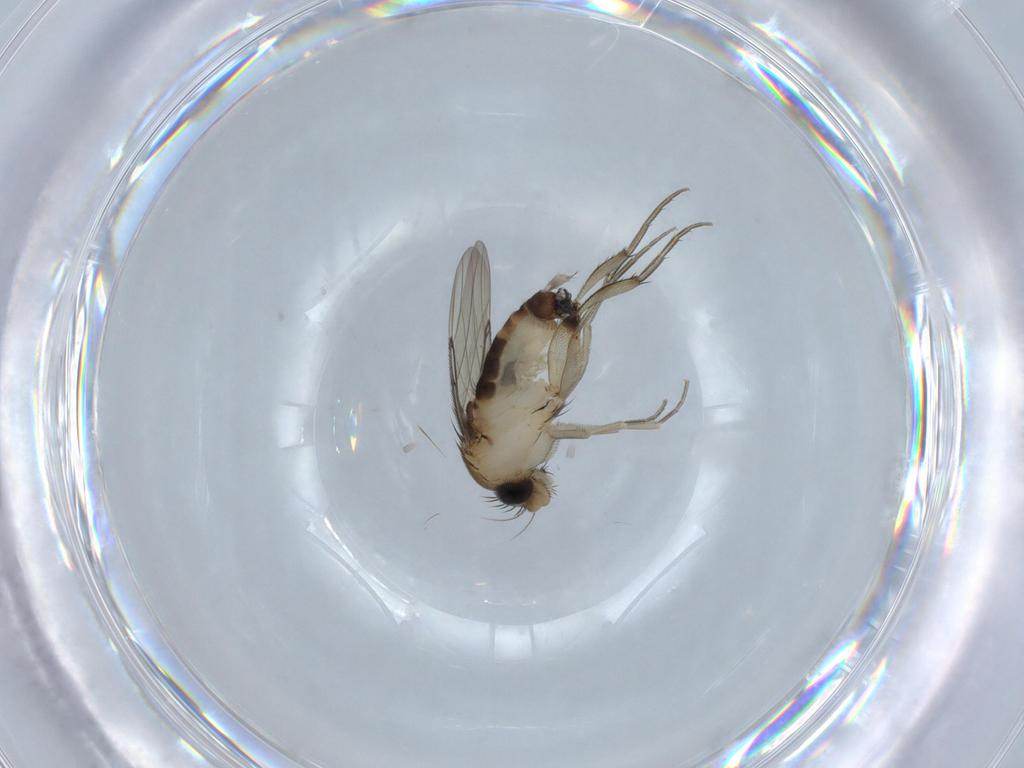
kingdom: Animalia
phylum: Arthropoda
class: Insecta
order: Diptera
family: Phoridae
